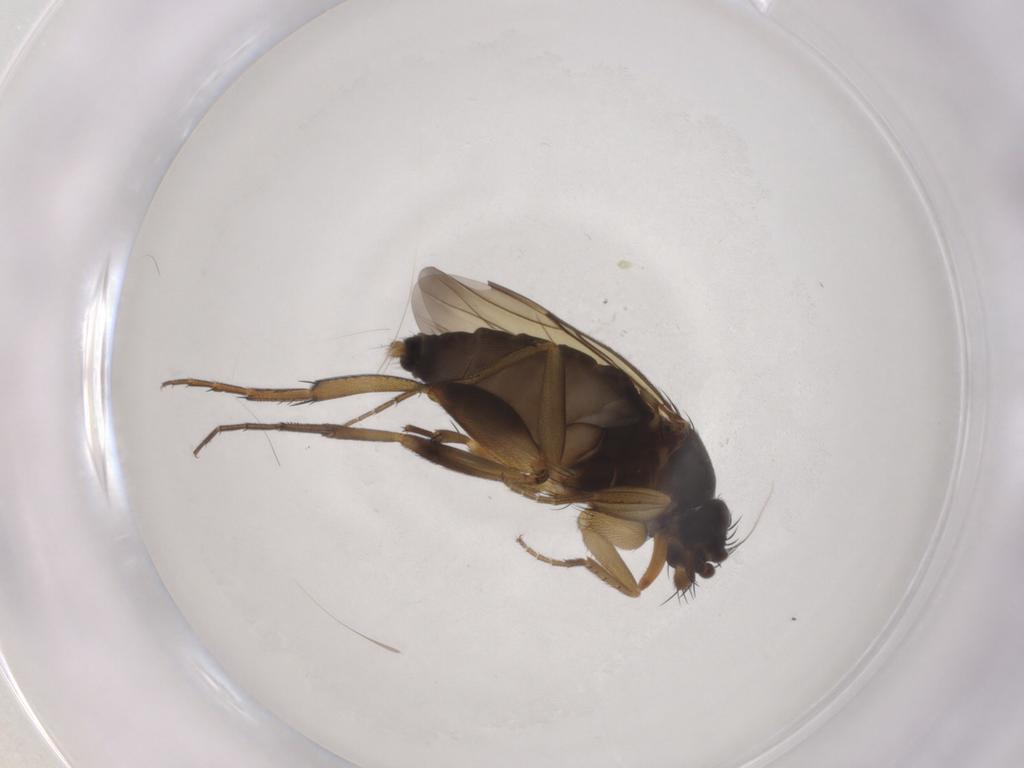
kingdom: Animalia
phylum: Arthropoda
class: Insecta
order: Diptera
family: Phoridae
